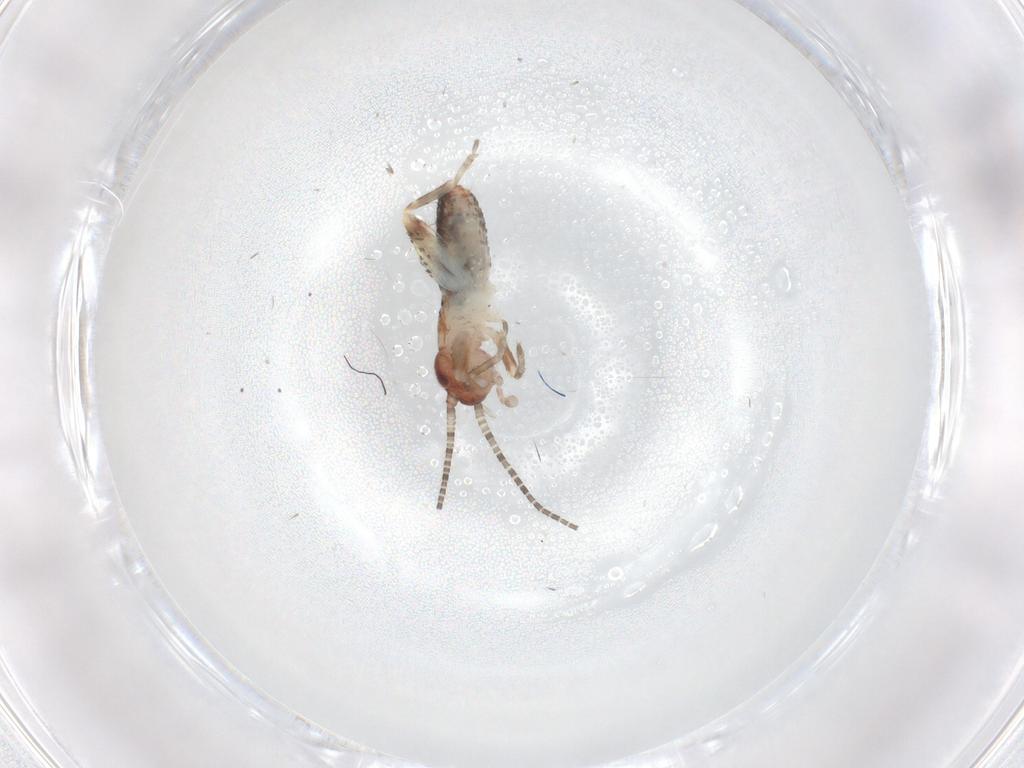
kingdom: Animalia
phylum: Arthropoda
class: Insecta
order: Orthoptera
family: Mogoplistidae
